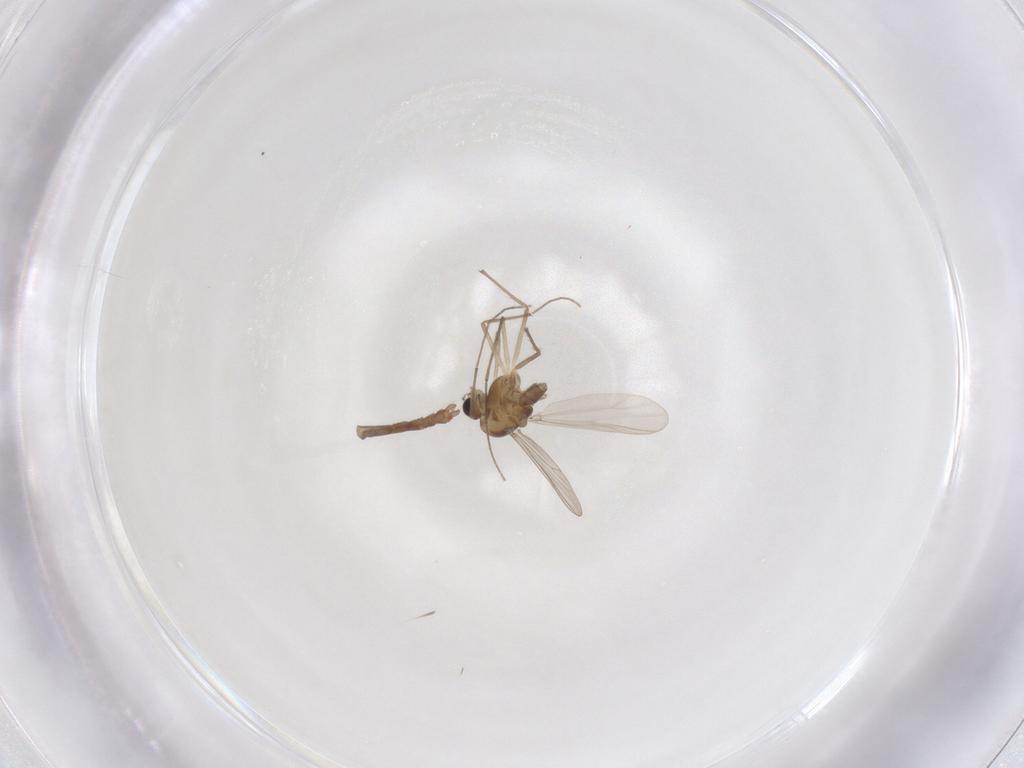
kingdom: Animalia
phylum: Arthropoda
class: Insecta
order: Diptera
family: Chironomidae
